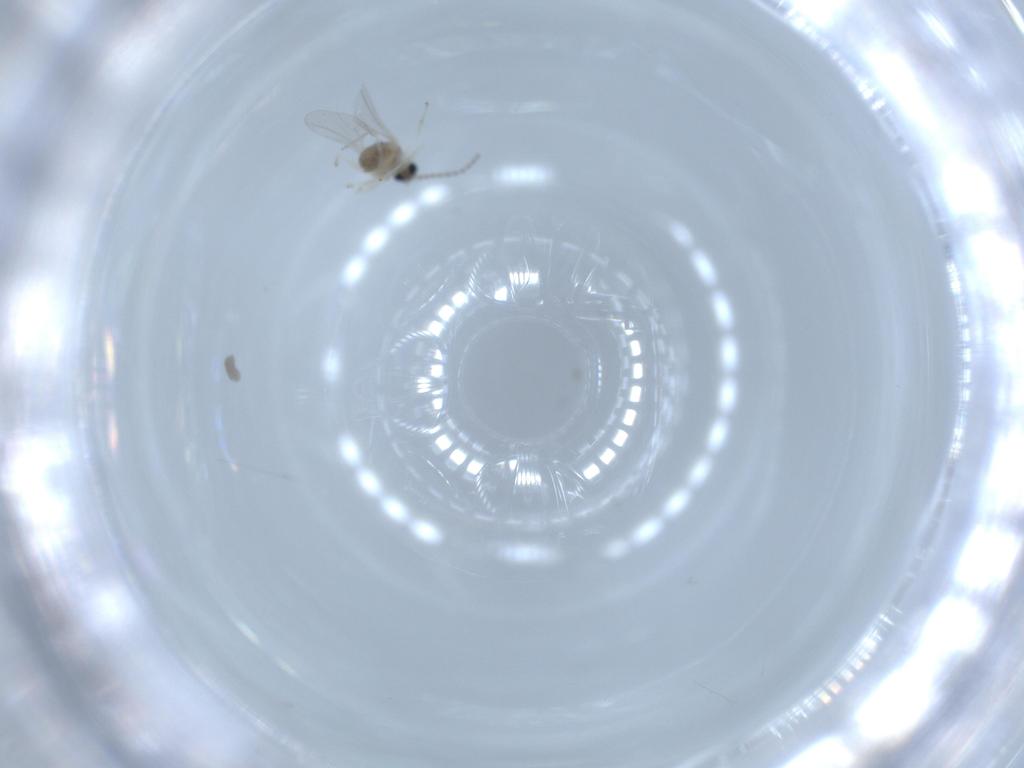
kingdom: Animalia
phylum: Arthropoda
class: Insecta
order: Diptera
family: Cecidomyiidae
